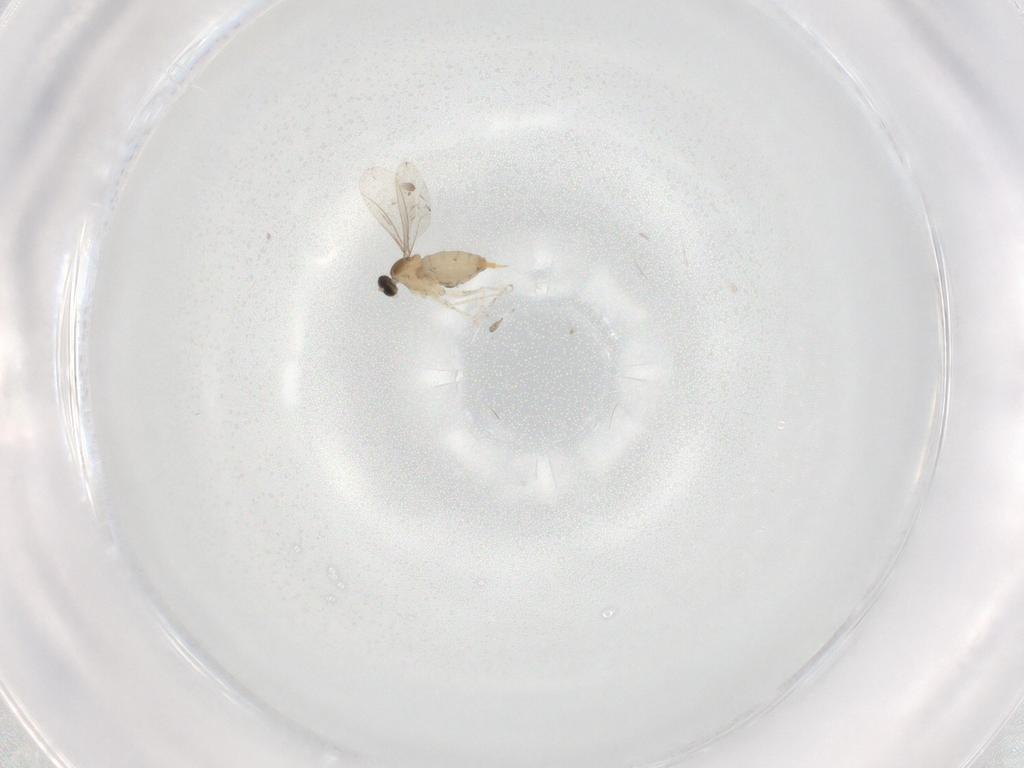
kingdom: Animalia
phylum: Arthropoda
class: Insecta
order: Diptera
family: Cecidomyiidae
